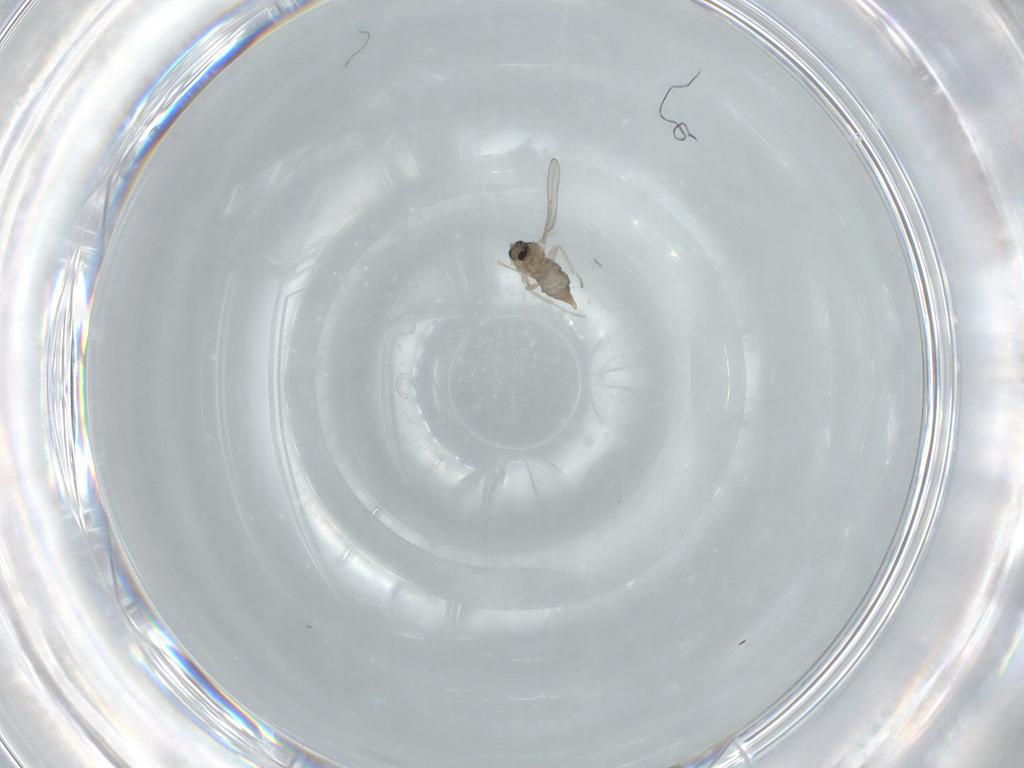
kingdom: Animalia
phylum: Arthropoda
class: Insecta
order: Diptera
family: Cecidomyiidae
